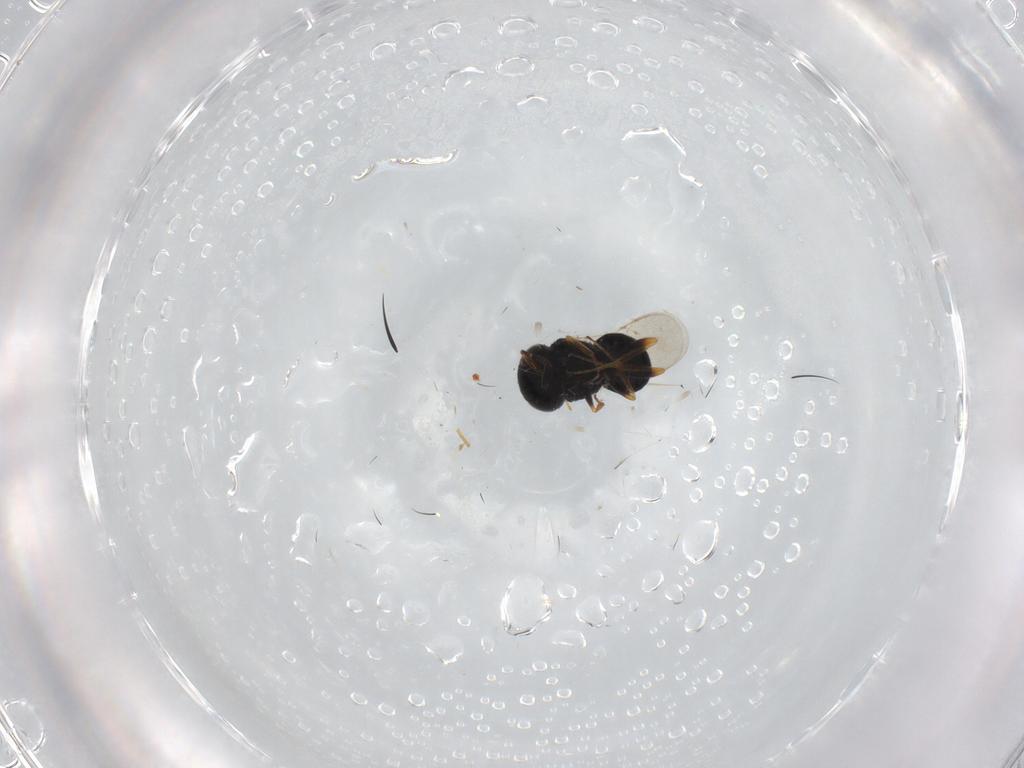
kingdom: Animalia
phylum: Arthropoda
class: Insecta
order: Hymenoptera
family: Scelionidae
